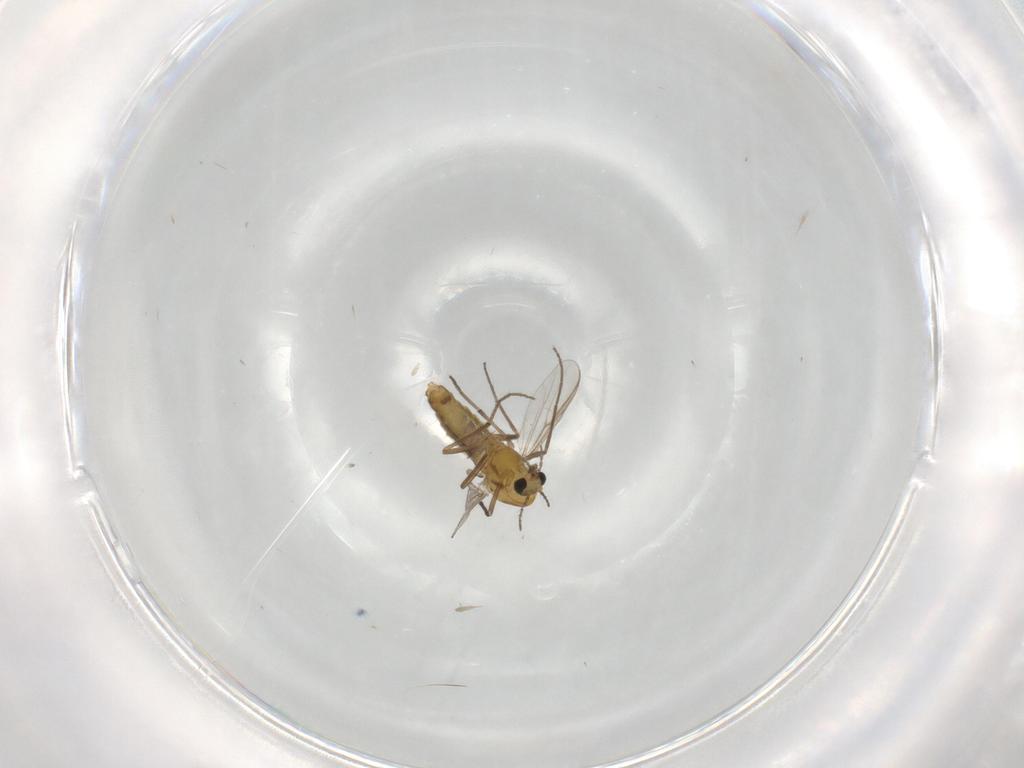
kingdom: Animalia
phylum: Arthropoda
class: Insecta
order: Diptera
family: Chironomidae
